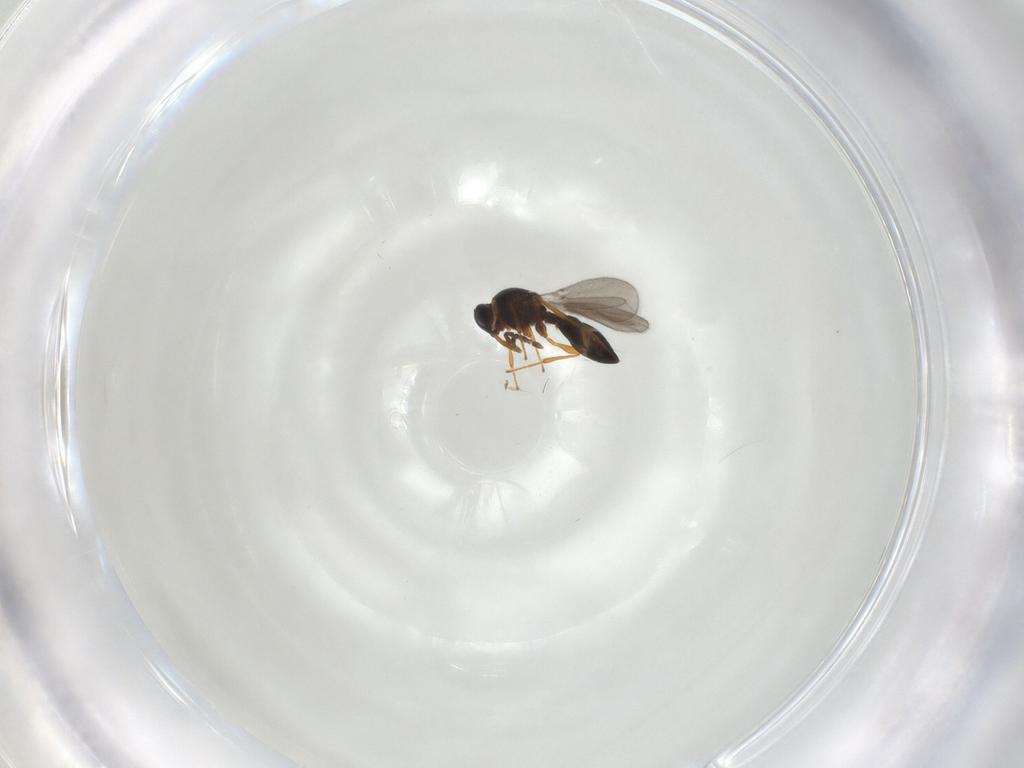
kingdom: Animalia
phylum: Arthropoda
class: Insecta
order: Hymenoptera
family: Platygastridae
